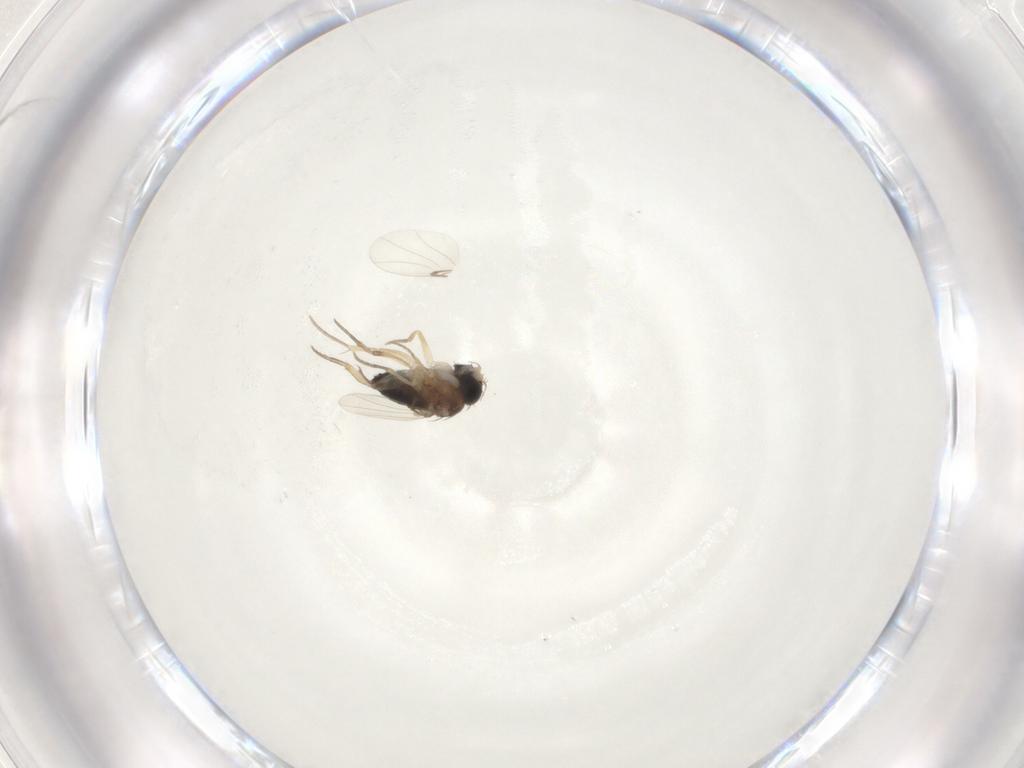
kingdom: Animalia
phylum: Arthropoda
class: Insecta
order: Diptera
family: Phoridae
